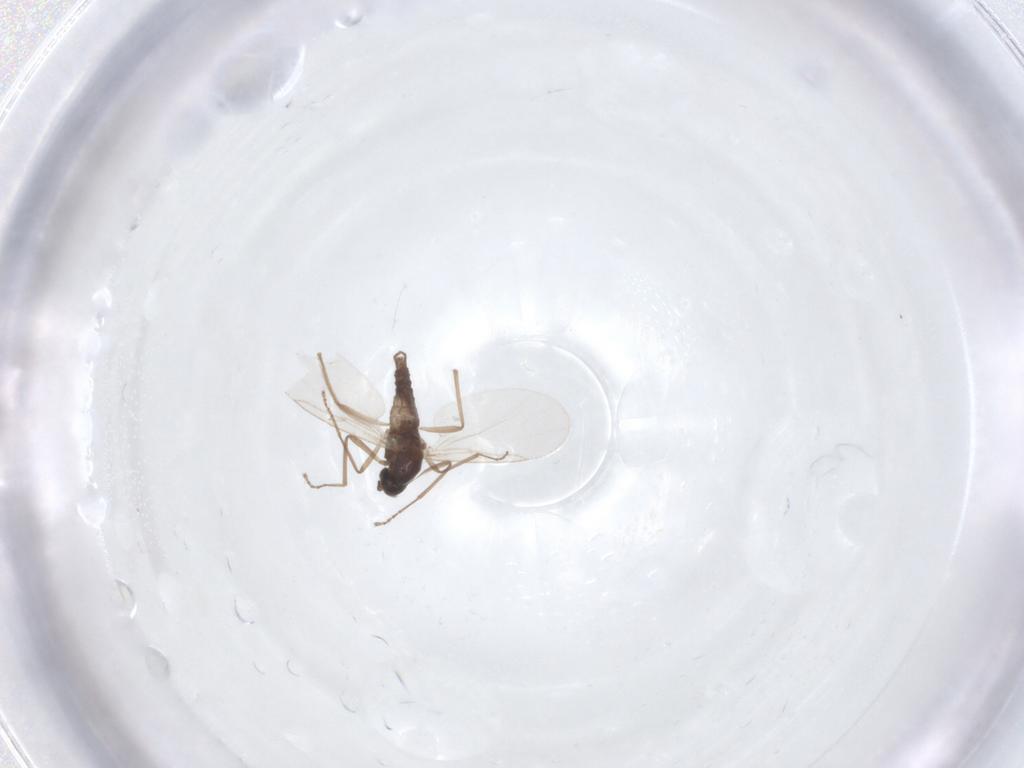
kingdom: Animalia
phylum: Arthropoda
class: Insecta
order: Diptera
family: Cecidomyiidae
